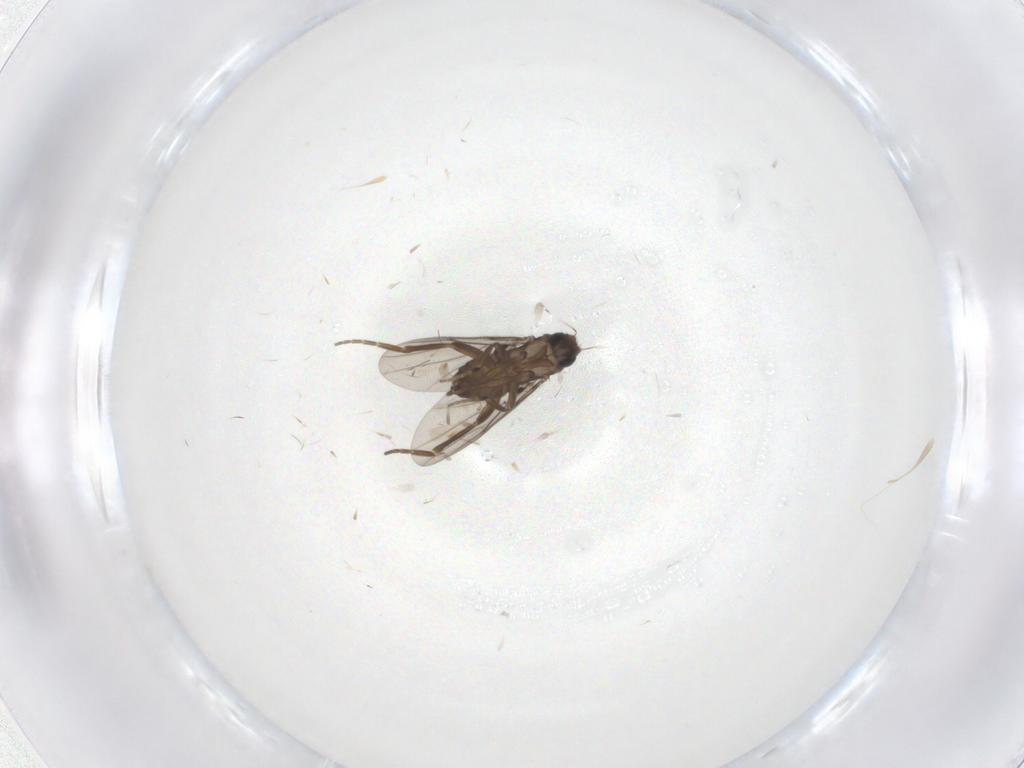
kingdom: Animalia
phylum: Arthropoda
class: Insecta
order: Diptera
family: Phoridae
